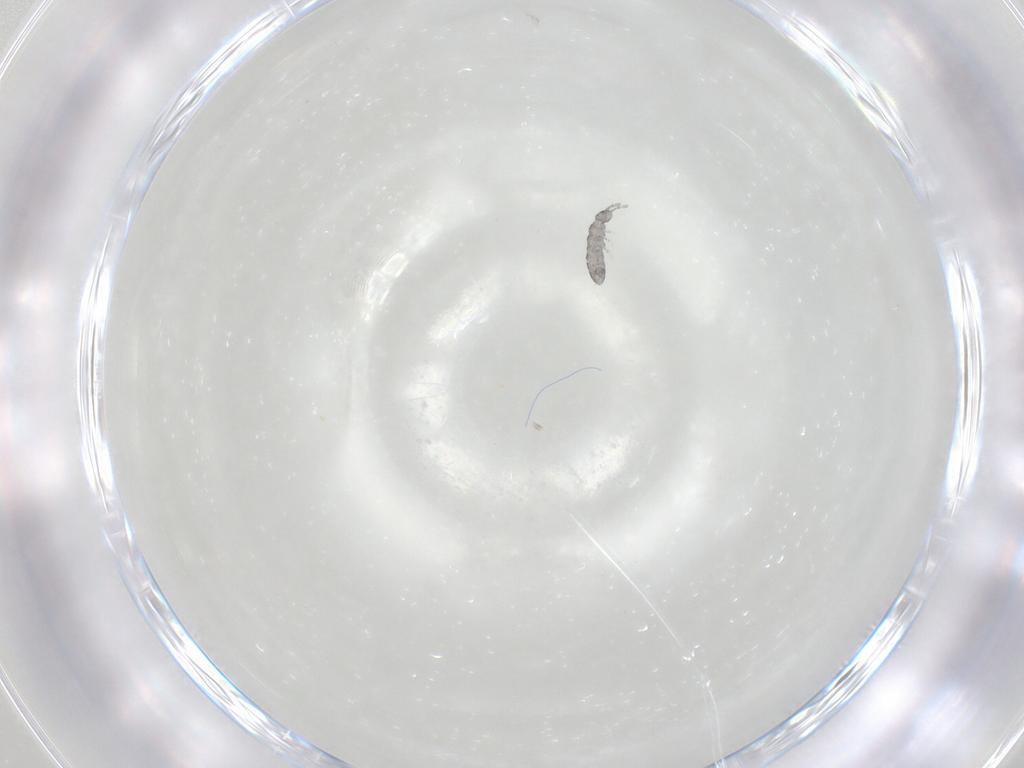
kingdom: Animalia
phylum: Arthropoda
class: Collembola
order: Entomobryomorpha
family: Isotomidae
